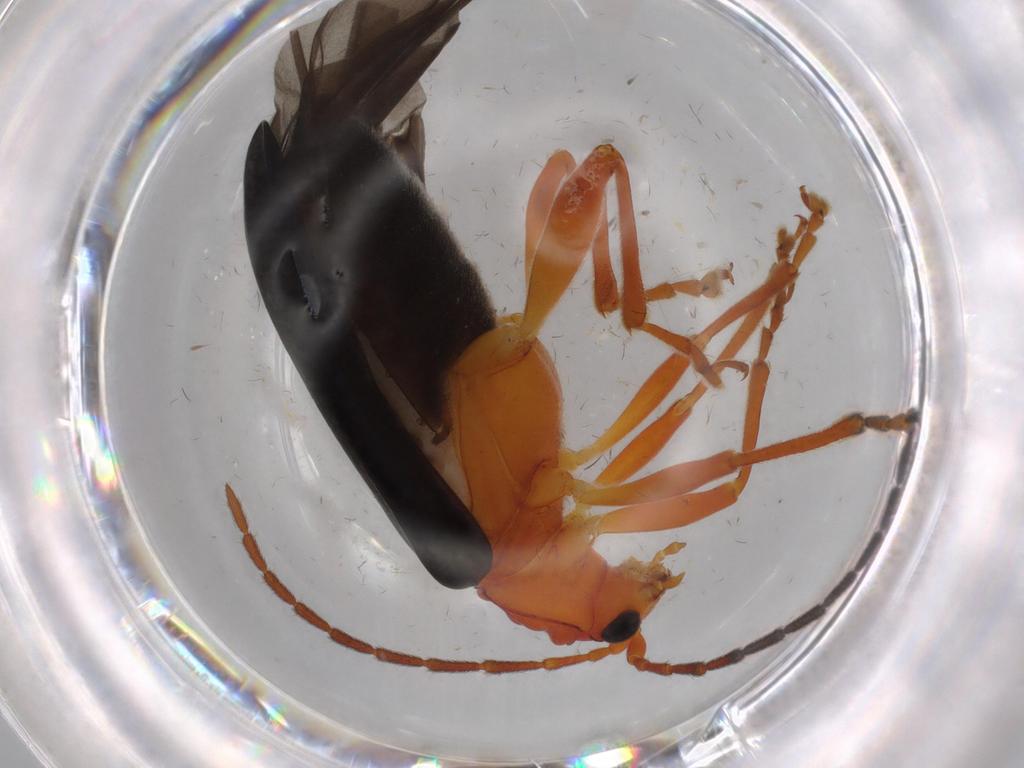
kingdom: Animalia
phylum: Arthropoda
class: Insecta
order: Coleoptera
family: Chrysomelidae
